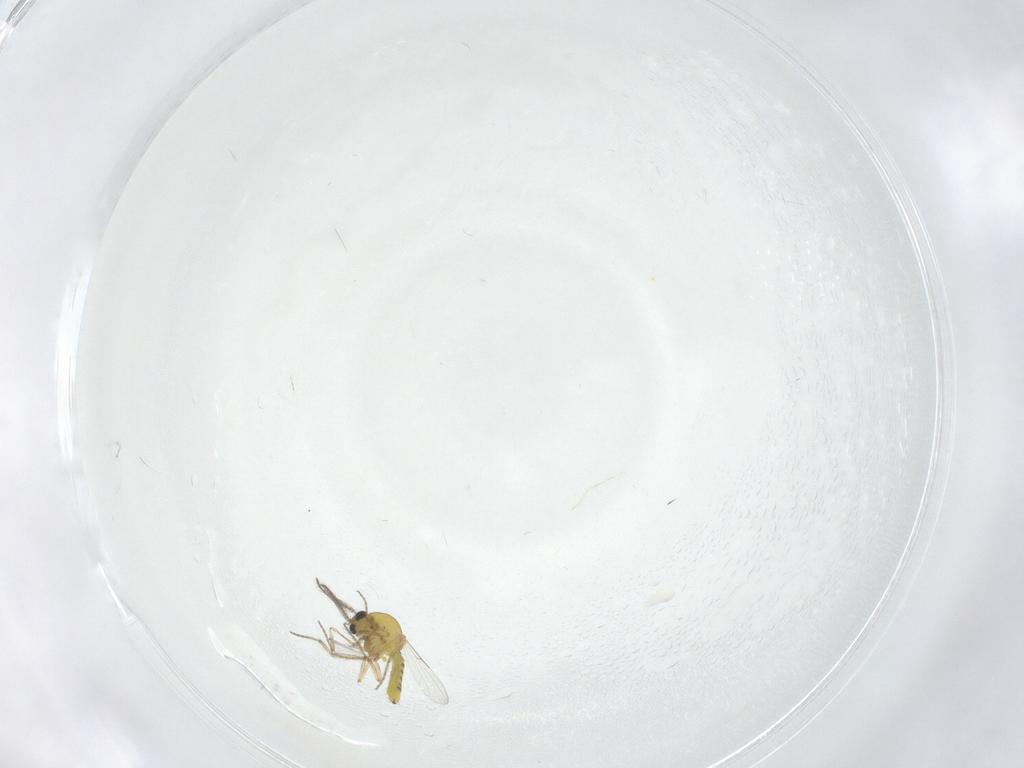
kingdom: Animalia
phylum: Arthropoda
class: Insecta
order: Diptera
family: Ceratopogonidae
